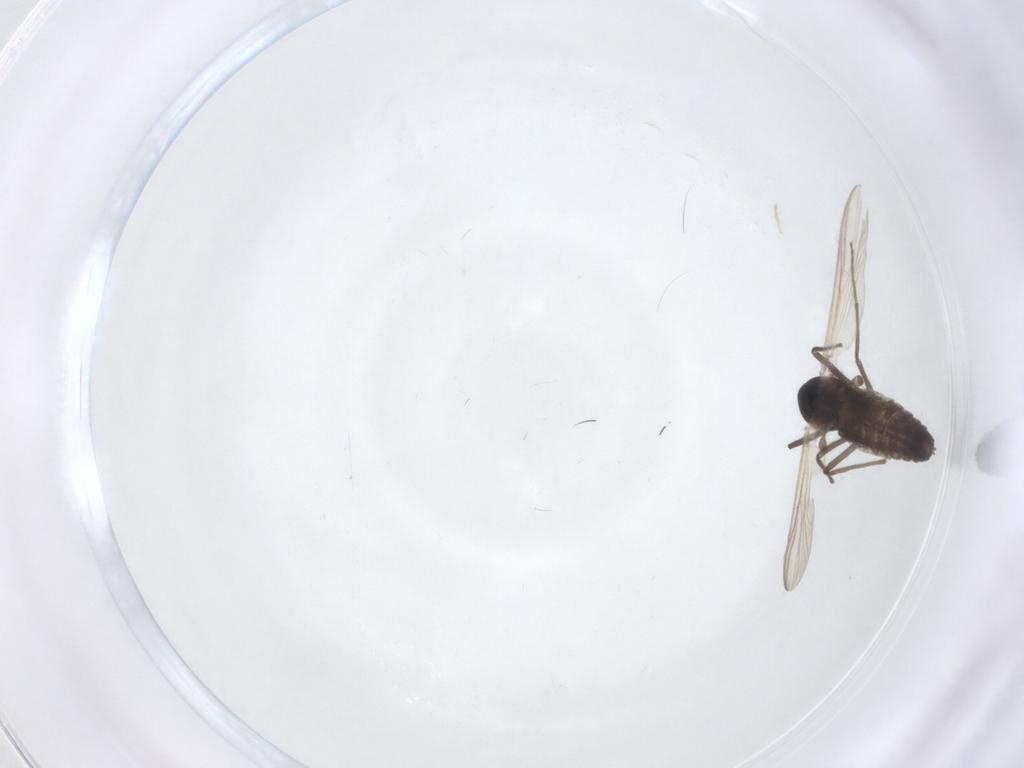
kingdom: Animalia
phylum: Arthropoda
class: Insecta
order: Diptera
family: Chironomidae
